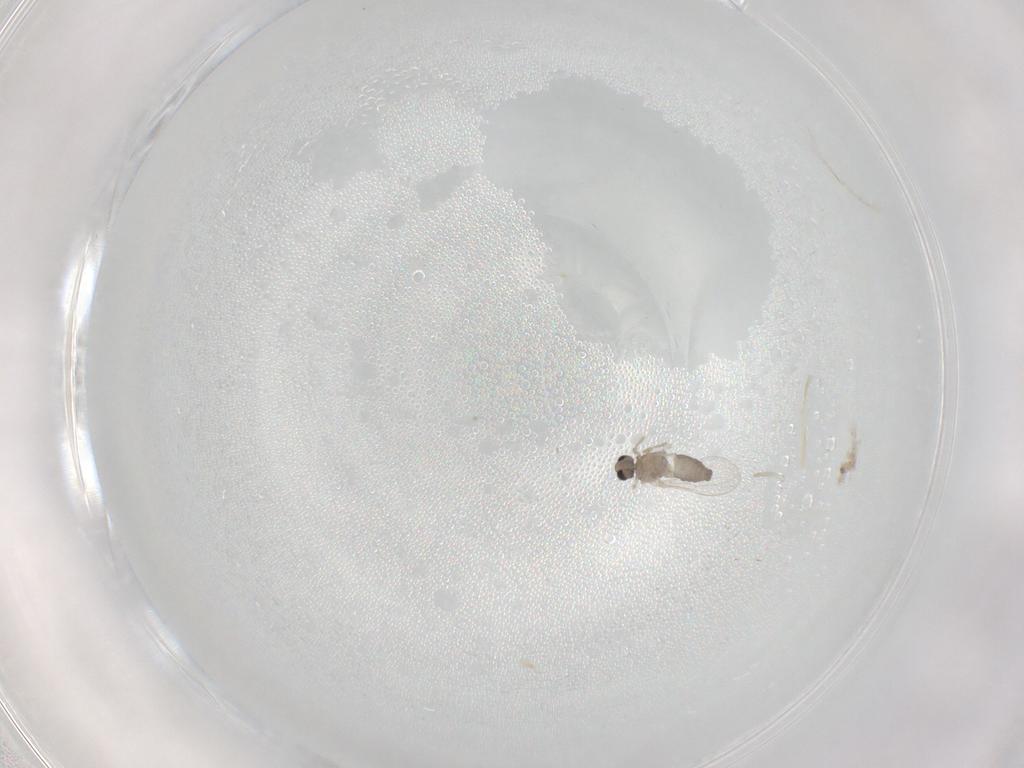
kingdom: Animalia
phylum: Arthropoda
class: Insecta
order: Diptera
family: Cecidomyiidae
